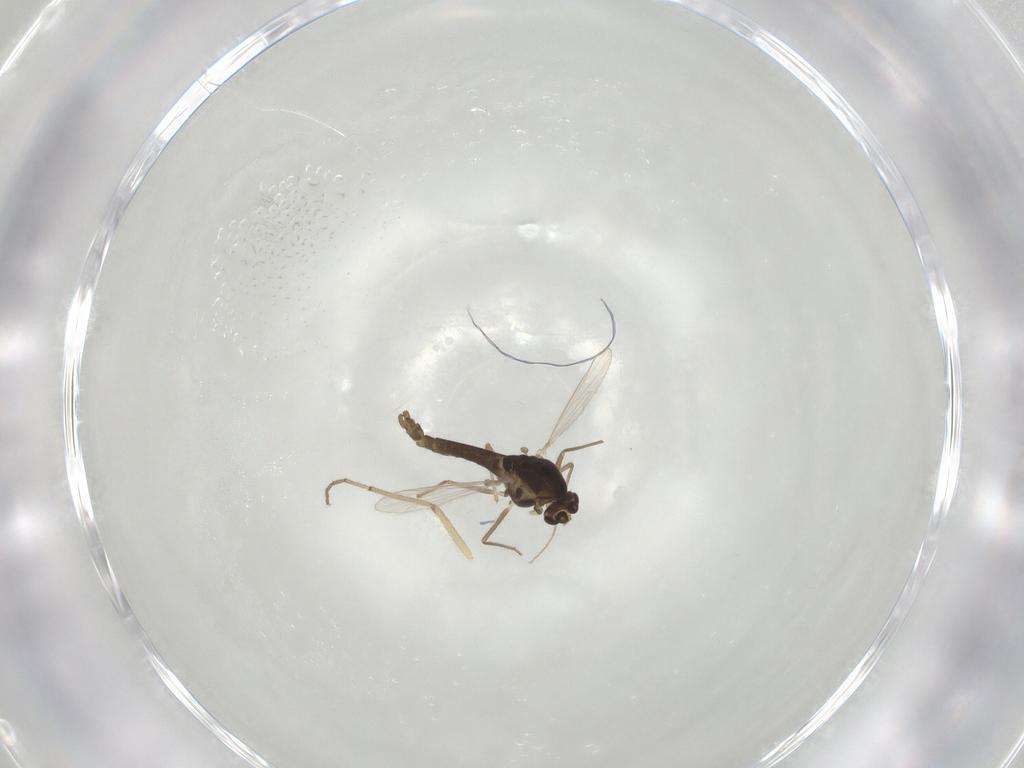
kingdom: Animalia
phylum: Arthropoda
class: Insecta
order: Diptera
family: Chironomidae
